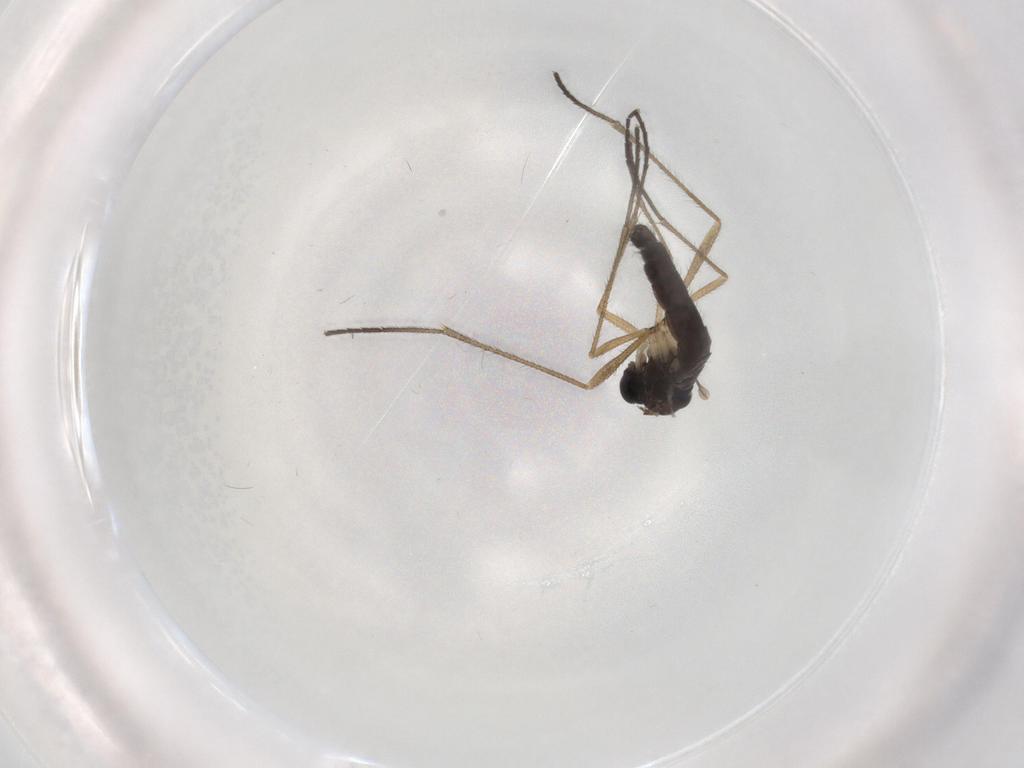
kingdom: Animalia
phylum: Arthropoda
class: Insecta
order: Diptera
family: Sciaridae
